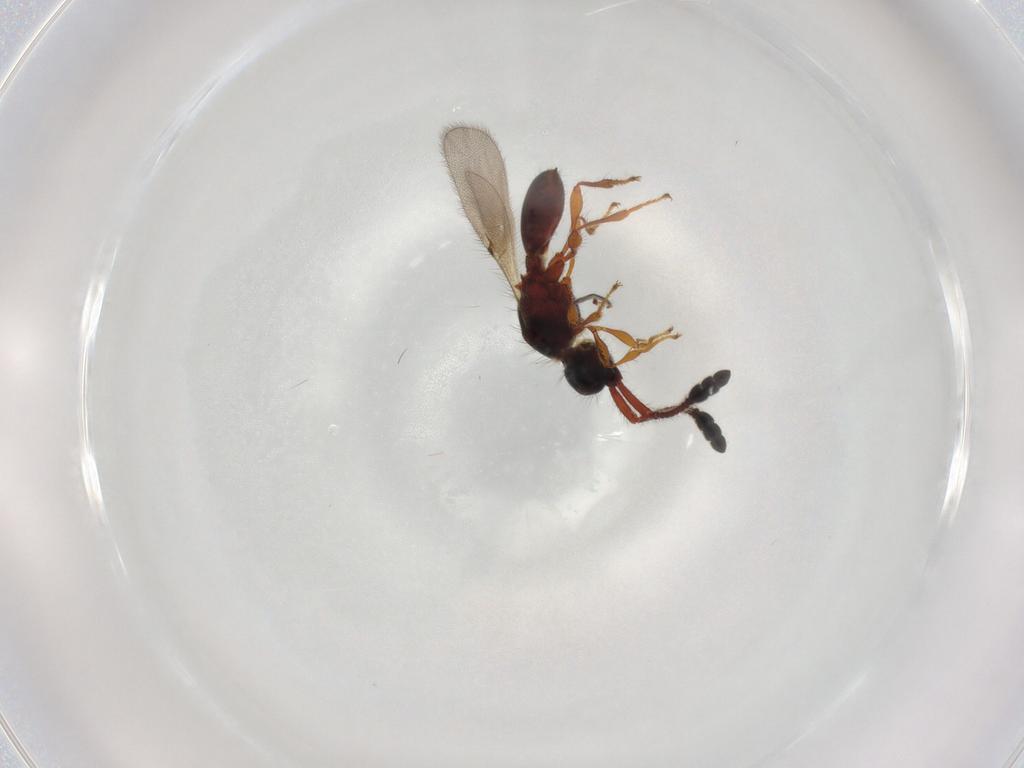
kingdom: Animalia
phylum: Arthropoda
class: Insecta
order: Hymenoptera
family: Diapriidae
